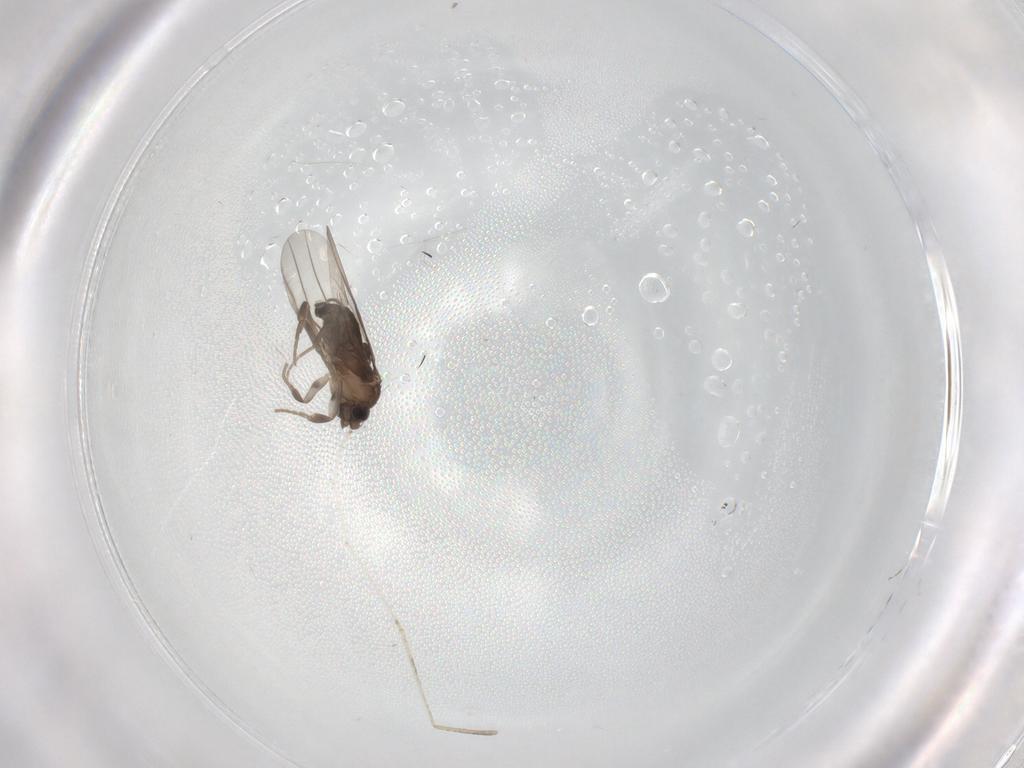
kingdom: Animalia
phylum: Arthropoda
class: Insecta
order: Diptera
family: Phoridae
